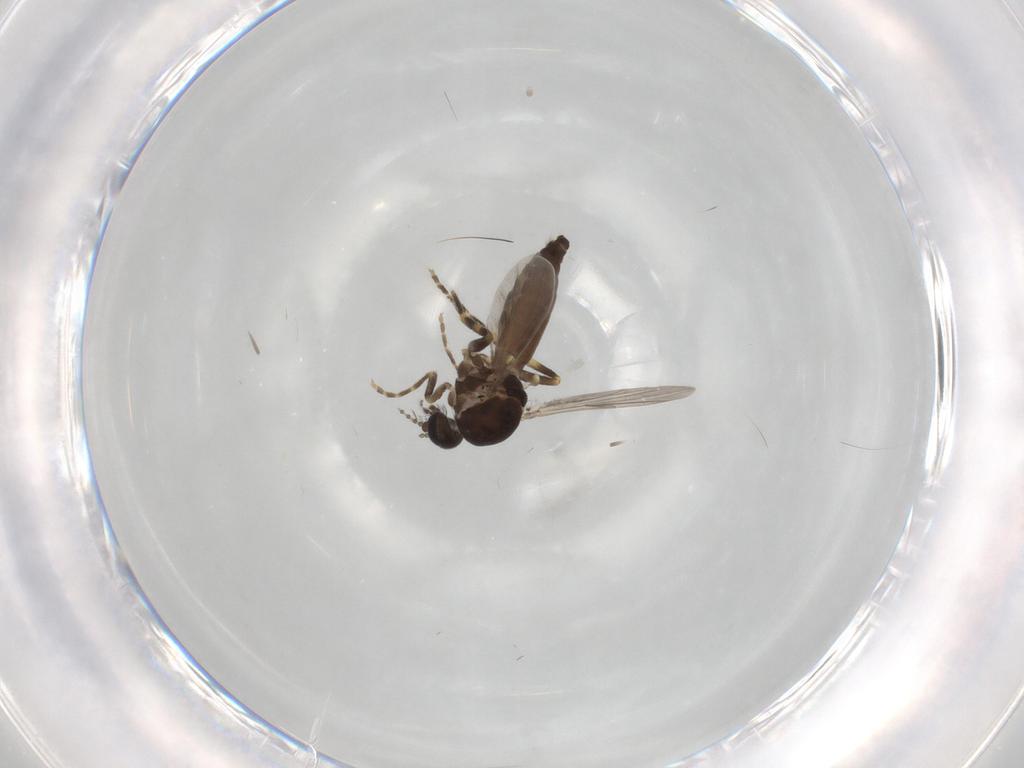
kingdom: Animalia
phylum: Arthropoda
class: Insecta
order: Diptera
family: Ceratopogonidae
